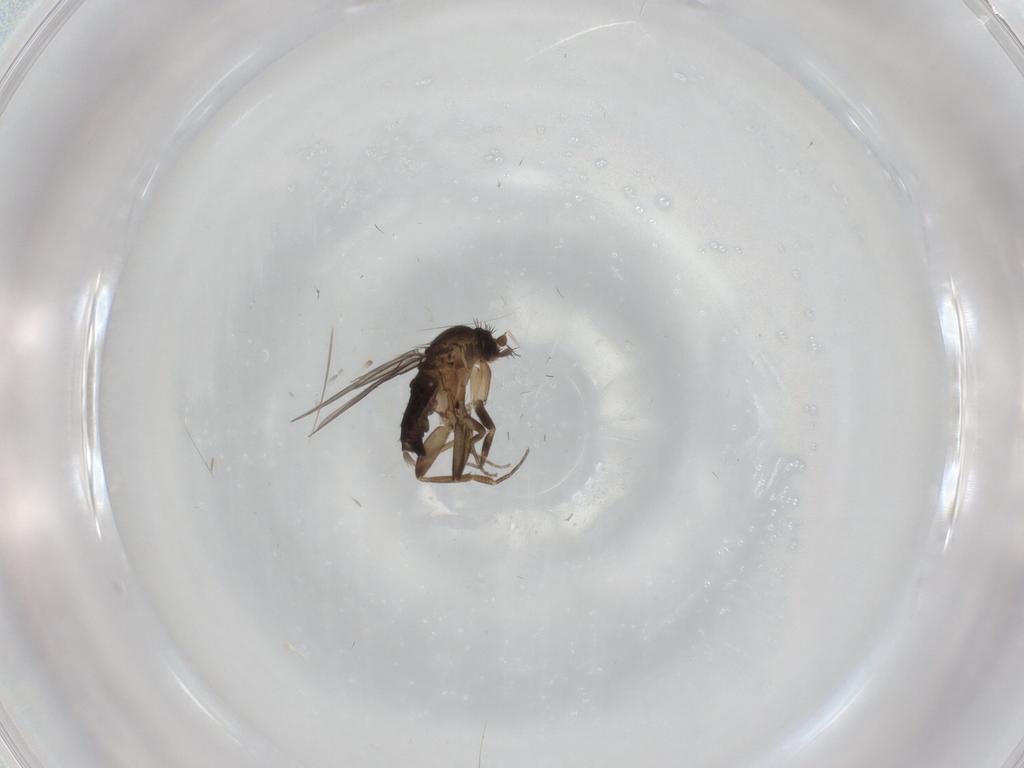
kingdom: Animalia
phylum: Arthropoda
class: Insecta
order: Diptera
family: Phoridae
